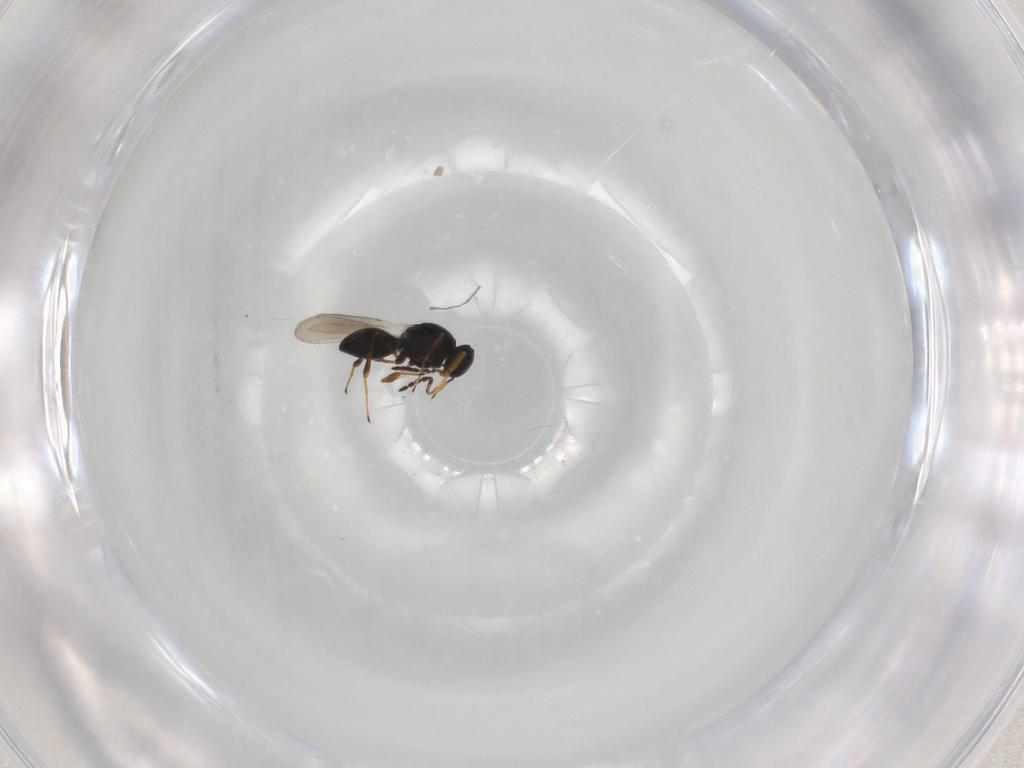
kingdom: Animalia
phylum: Arthropoda
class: Insecta
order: Hymenoptera
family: Platygastridae
